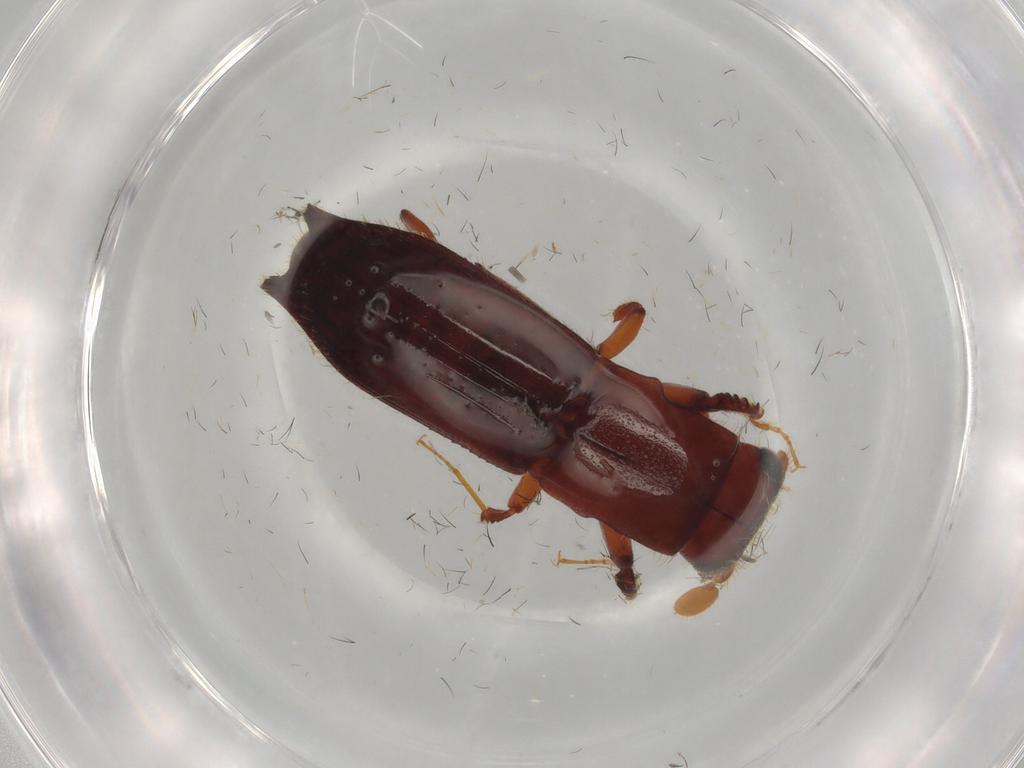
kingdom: Animalia
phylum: Arthropoda
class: Insecta
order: Coleoptera
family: Curculionidae
